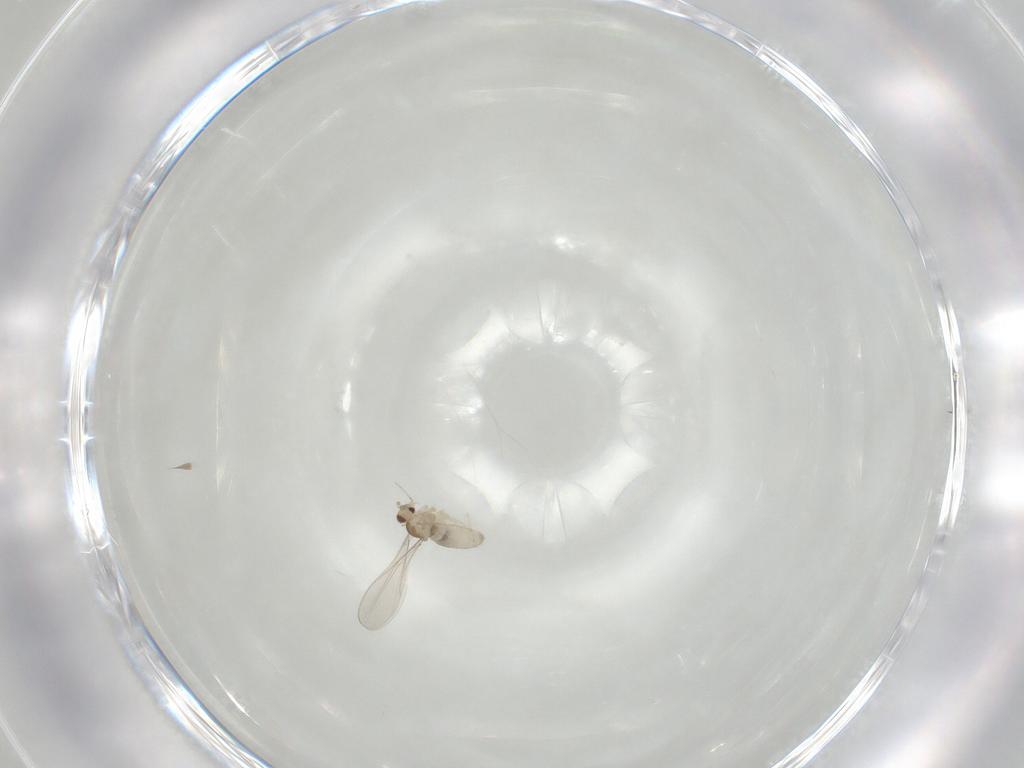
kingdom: Animalia
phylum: Arthropoda
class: Insecta
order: Diptera
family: Cecidomyiidae
